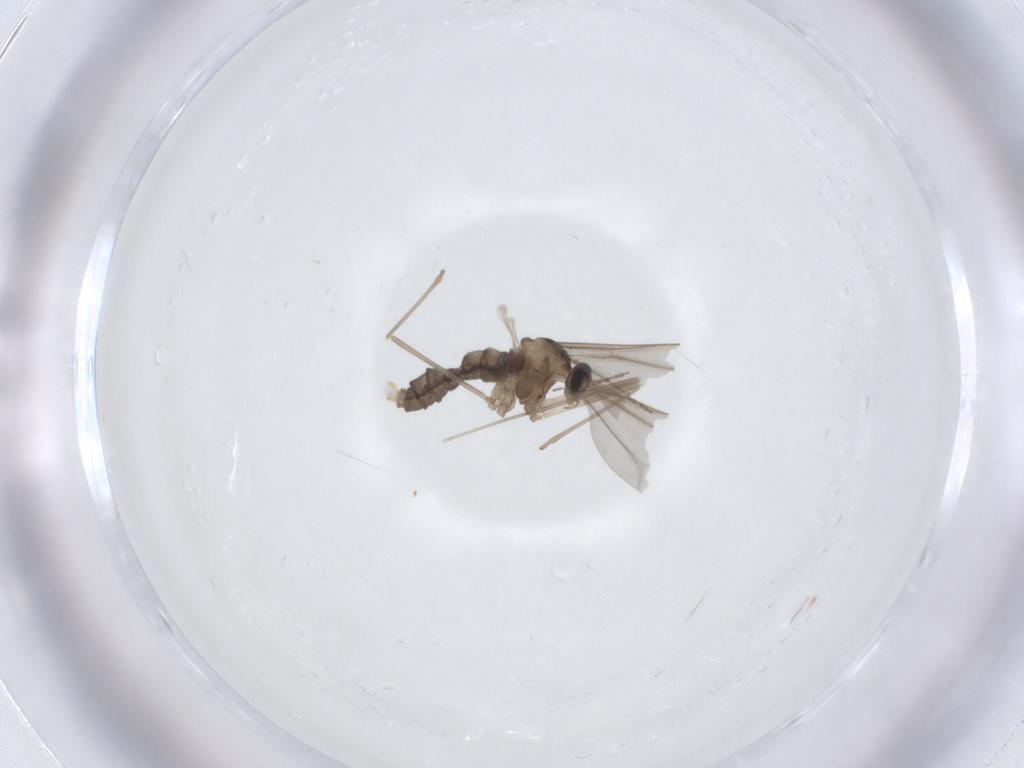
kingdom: Animalia
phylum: Arthropoda
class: Insecta
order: Diptera
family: Cecidomyiidae
